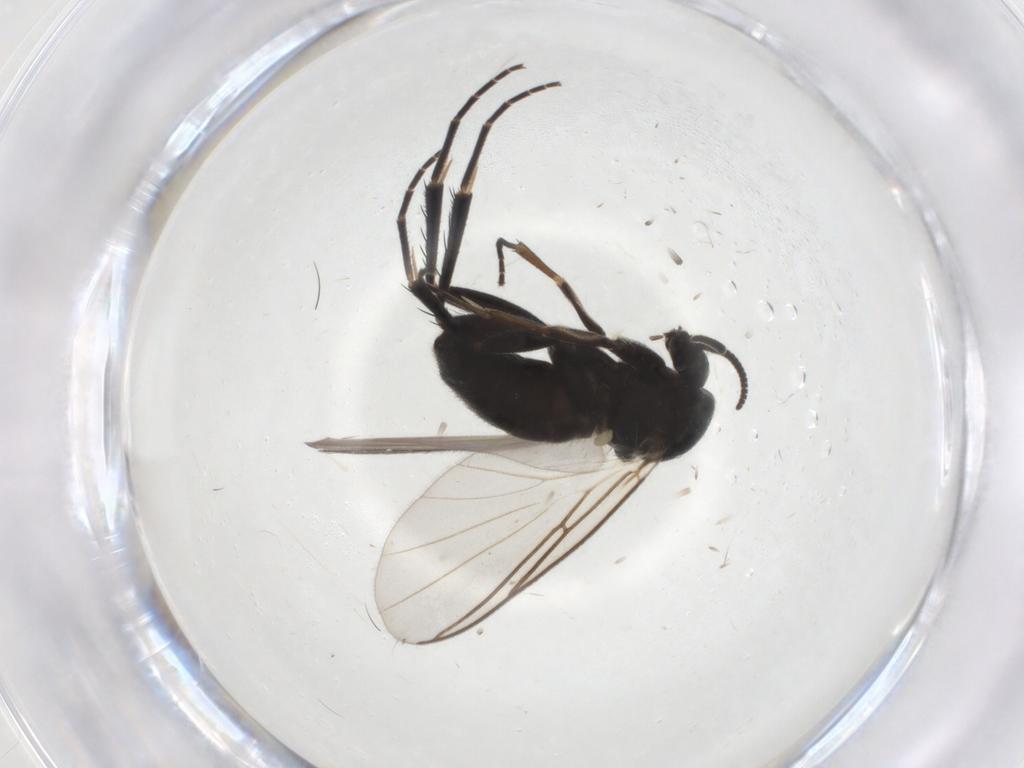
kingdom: Animalia
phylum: Arthropoda
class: Insecta
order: Diptera
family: Mycetophilidae
